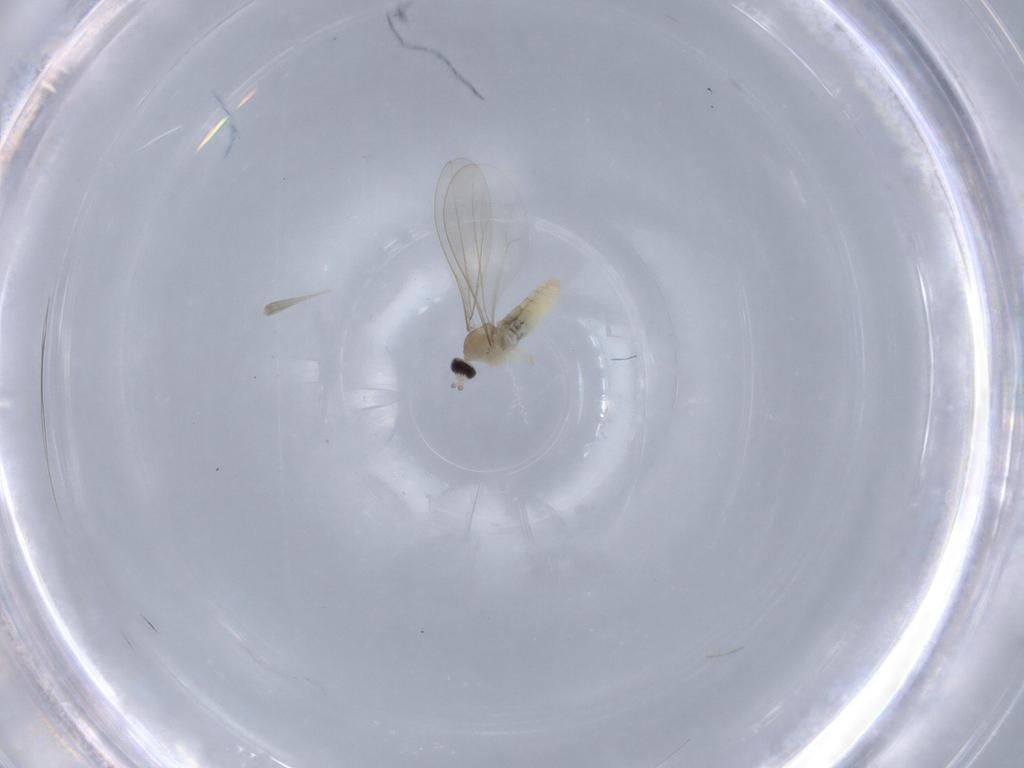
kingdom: Animalia
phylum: Arthropoda
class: Insecta
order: Diptera
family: Cecidomyiidae
